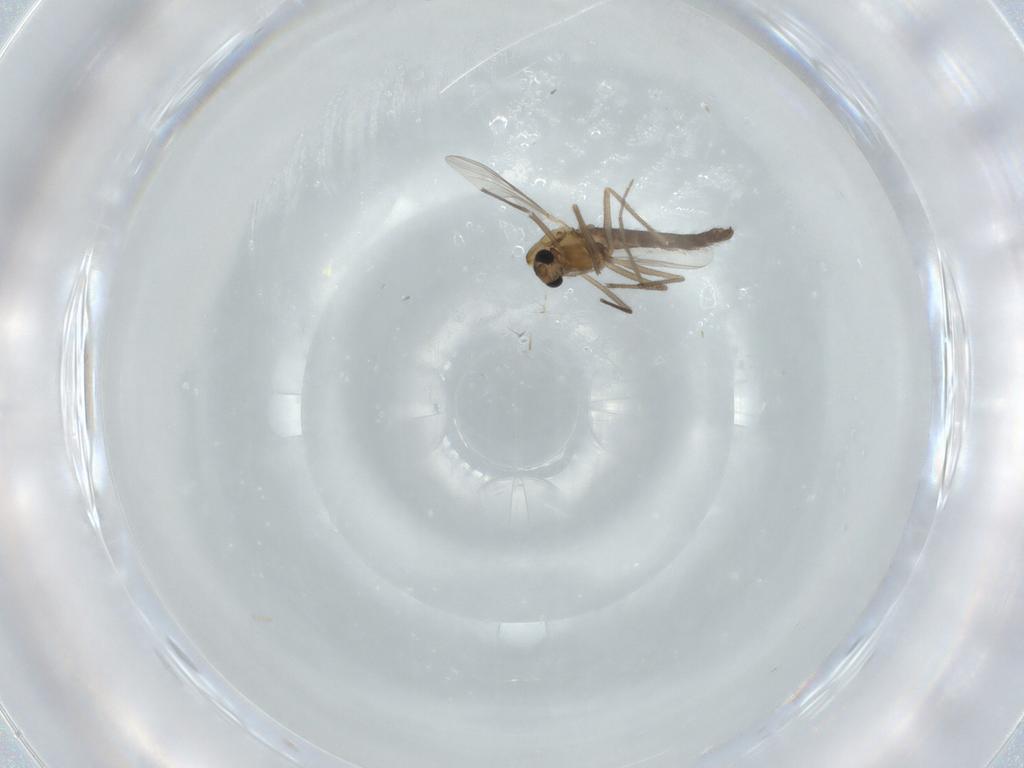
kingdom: Animalia
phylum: Arthropoda
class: Insecta
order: Diptera
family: Chironomidae
